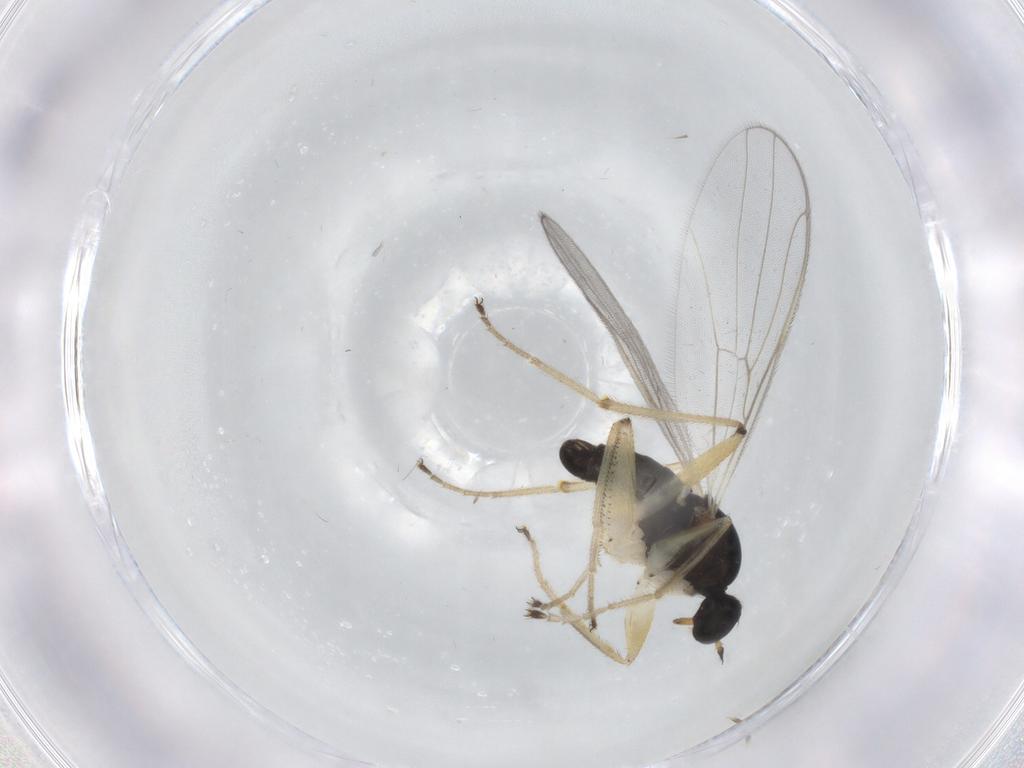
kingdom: Animalia
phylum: Arthropoda
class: Insecta
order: Diptera
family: Hybotidae
